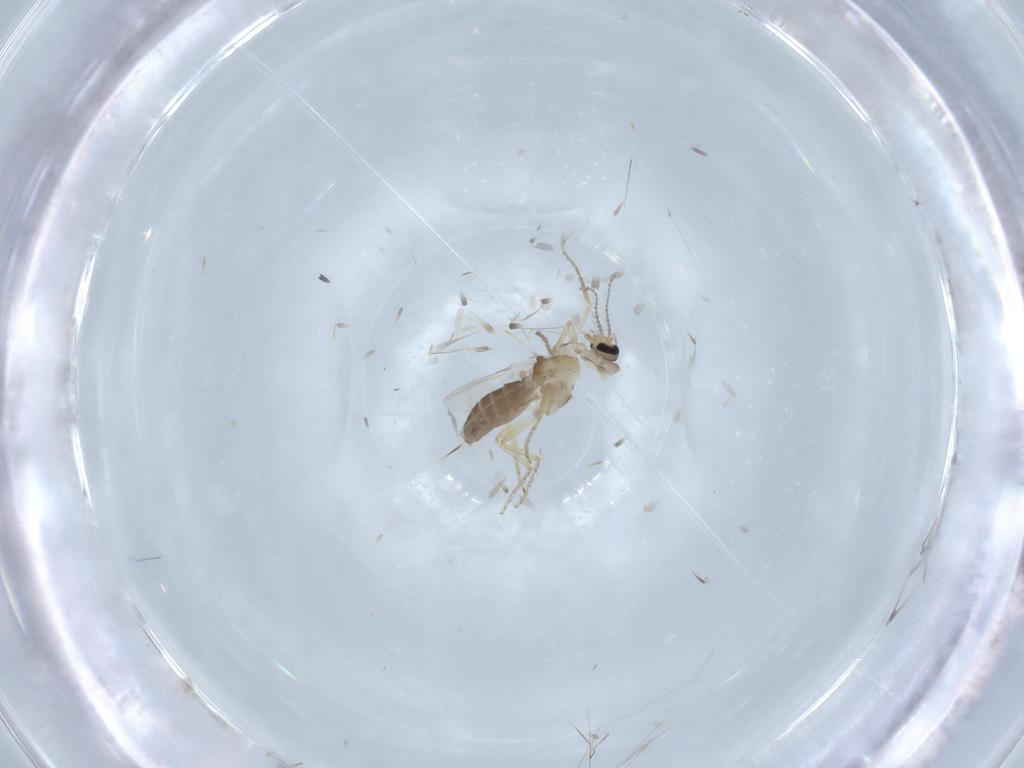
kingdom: Animalia
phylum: Arthropoda
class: Insecta
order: Diptera
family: Ceratopogonidae
